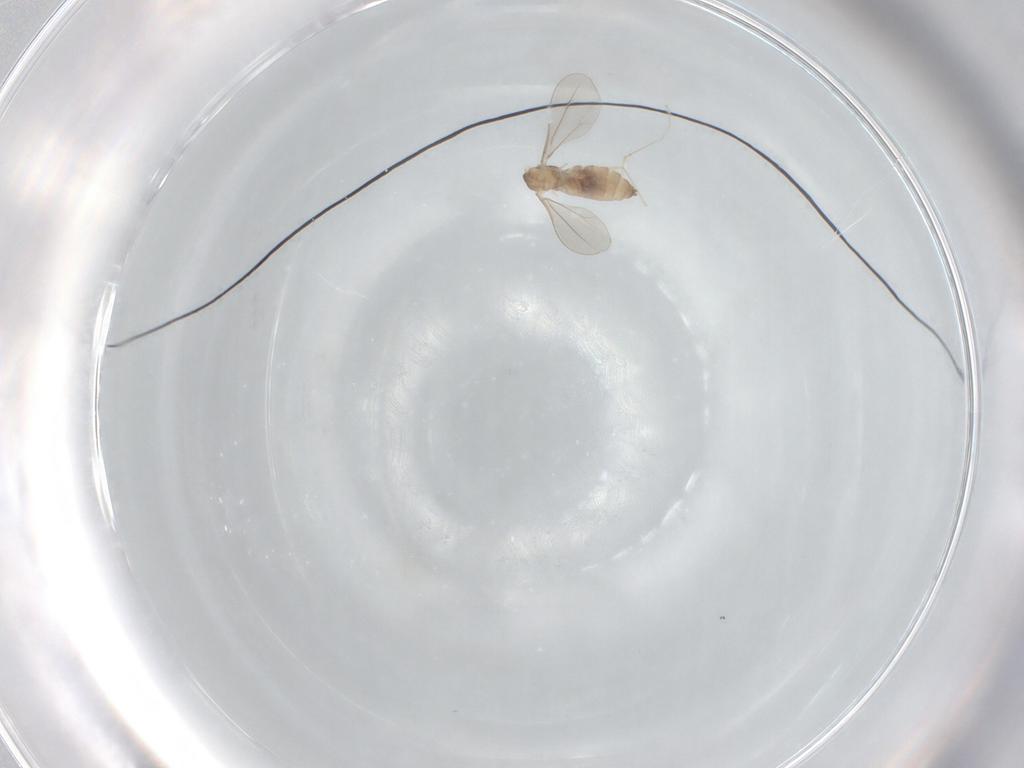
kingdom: Animalia
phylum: Arthropoda
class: Insecta
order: Diptera
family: Cecidomyiidae
